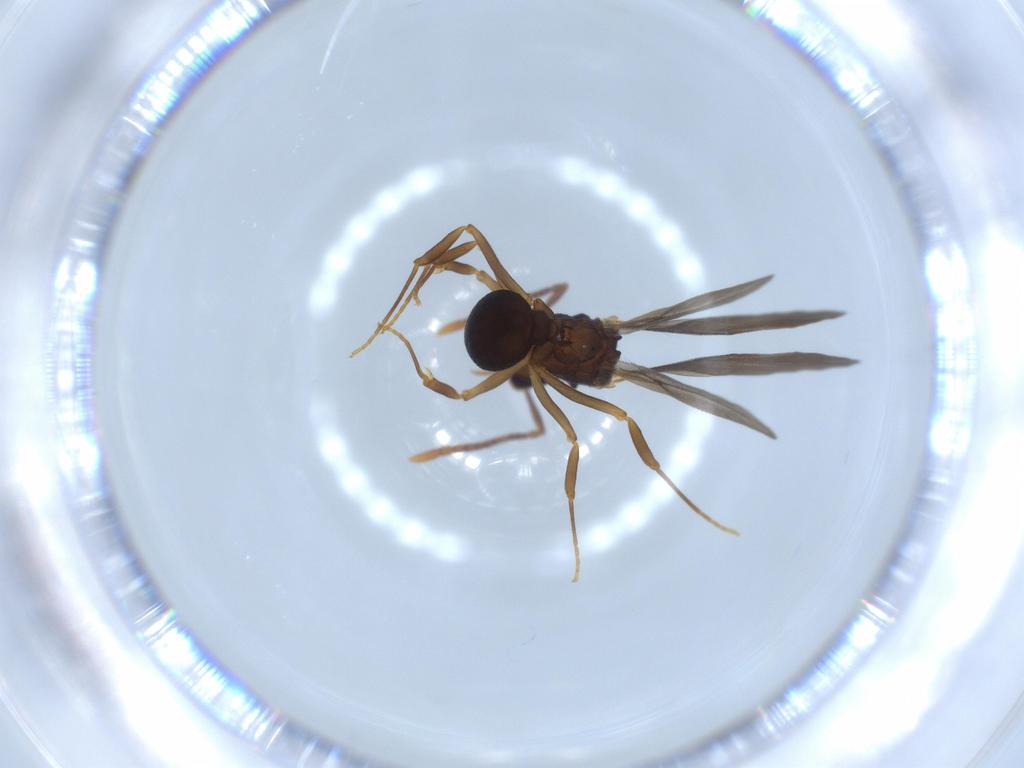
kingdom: Animalia
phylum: Arthropoda
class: Insecta
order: Hymenoptera
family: Formicidae
